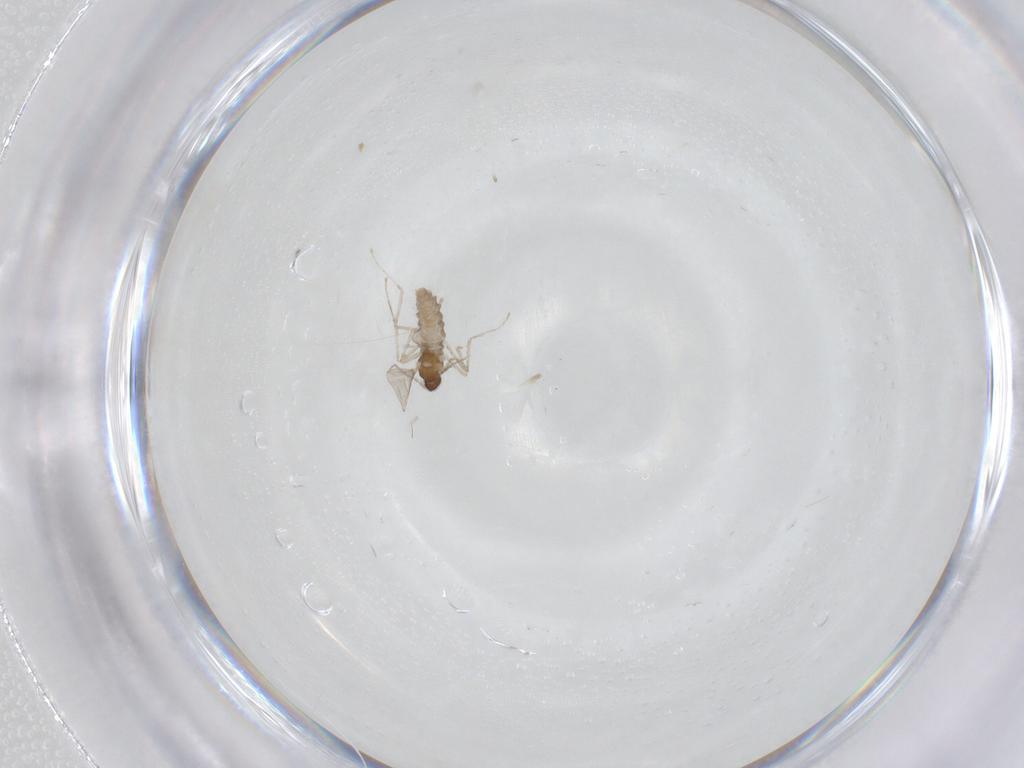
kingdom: Animalia
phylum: Arthropoda
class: Insecta
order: Diptera
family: Cecidomyiidae
